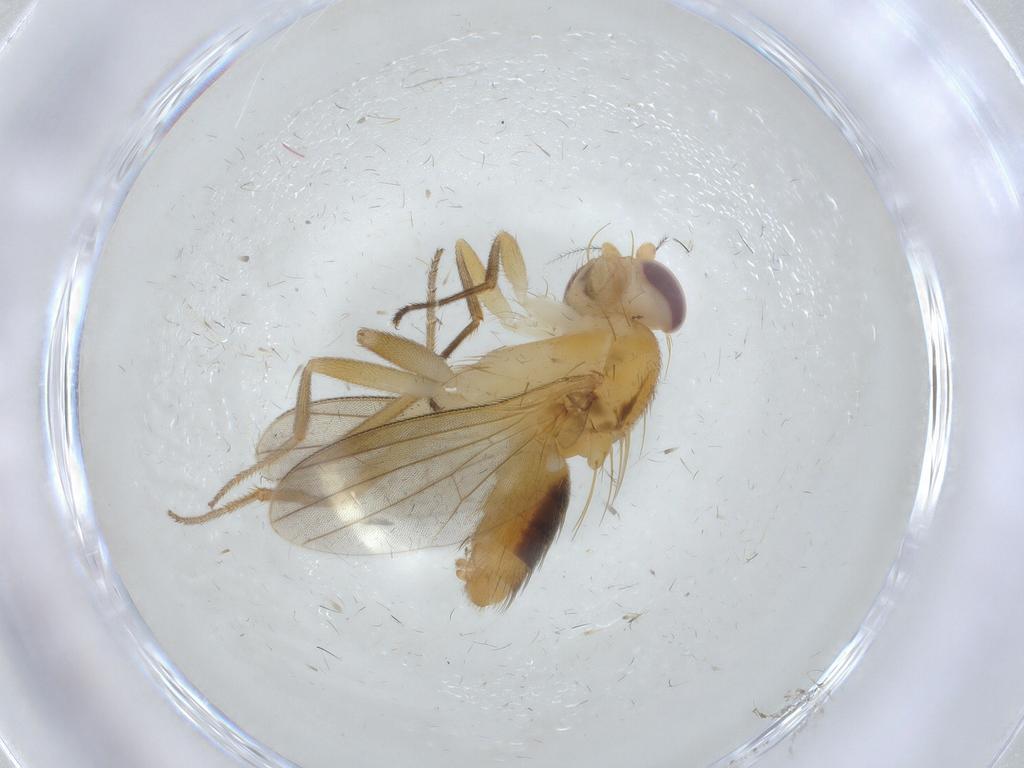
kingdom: Animalia
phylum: Arthropoda
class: Insecta
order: Diptera
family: Agromyzidae
